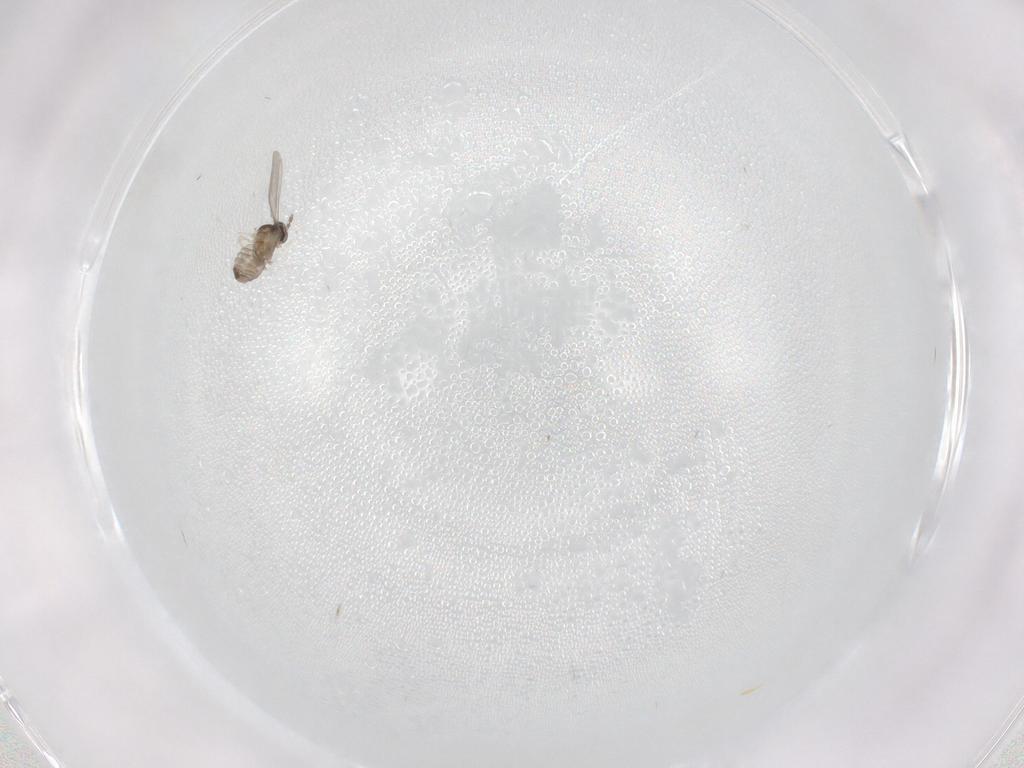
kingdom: Animalia
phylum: Arthropoda
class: Insecta
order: Diptera
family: Cecidomyiidae
